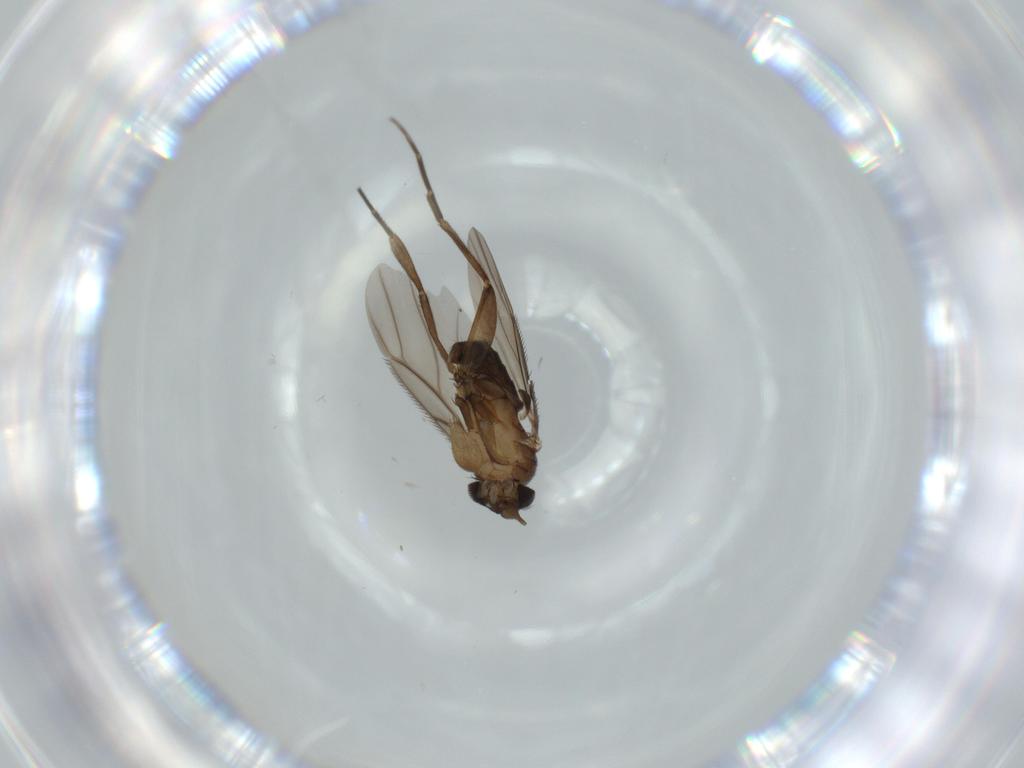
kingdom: Animalia
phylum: Arthropoda
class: Insecta
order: Diptera
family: Phoridae
